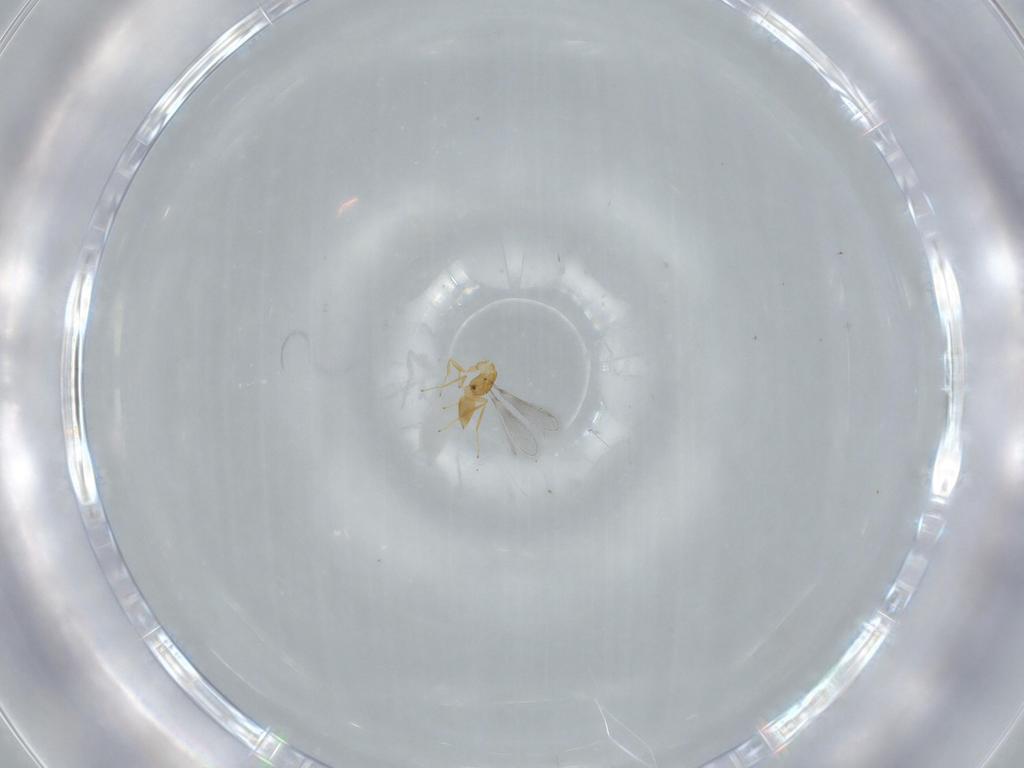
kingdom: Animalia
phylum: Arthropoda
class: Insecta
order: Hymenoptera
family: Mymaridae
